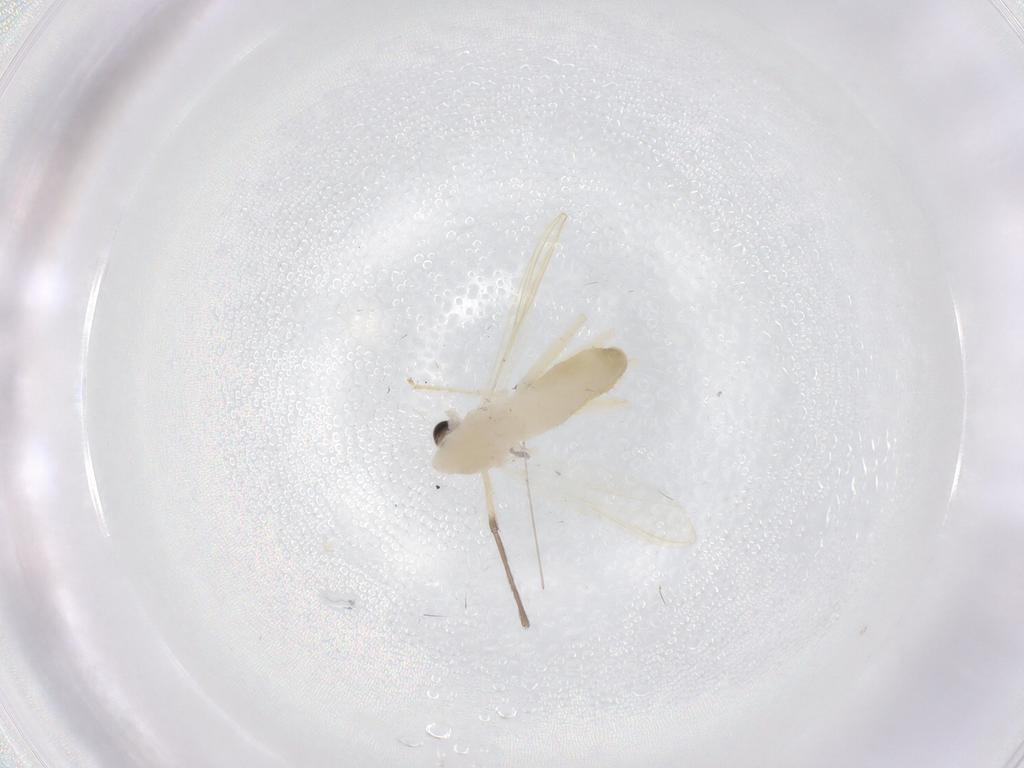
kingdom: Animalia
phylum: Arthropoda
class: Insecta
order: Diptera
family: Chironomidae
